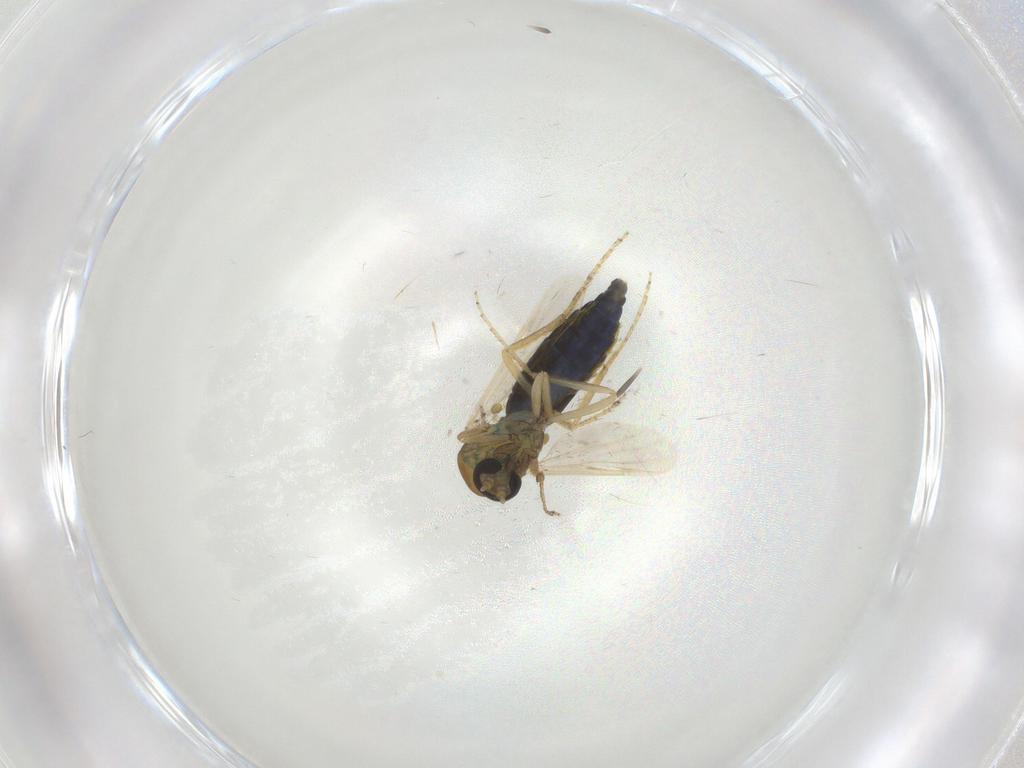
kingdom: Animalia
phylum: Arthropoda
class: Insecta
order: Diptera
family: Ceratopogonidae
